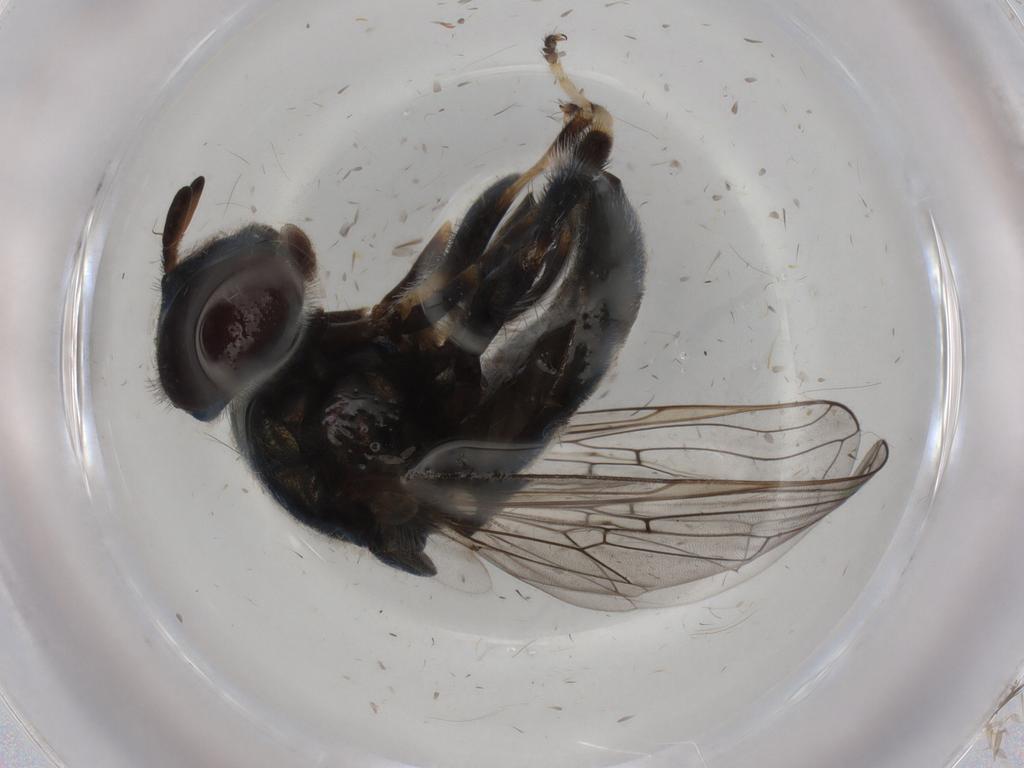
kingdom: Animalia
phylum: Arthropoda
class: Insecta
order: Diptera
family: Syrphidae
